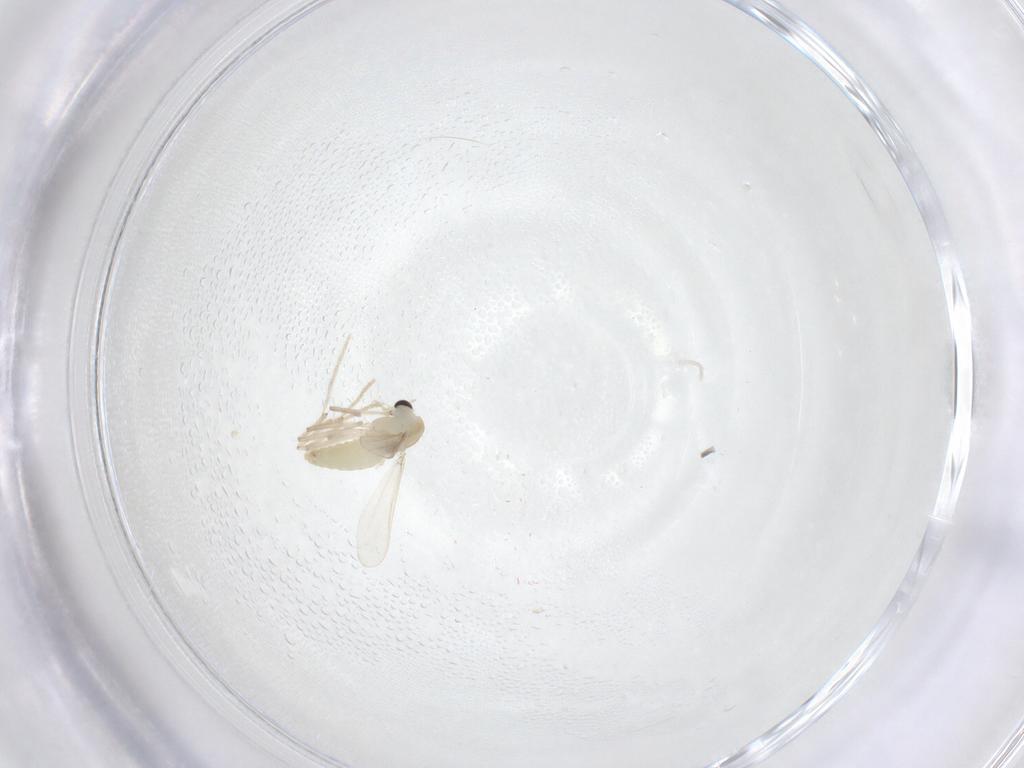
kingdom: Animalia
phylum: Arthropoda
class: Insecta
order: Diptera
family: Chironomidae
